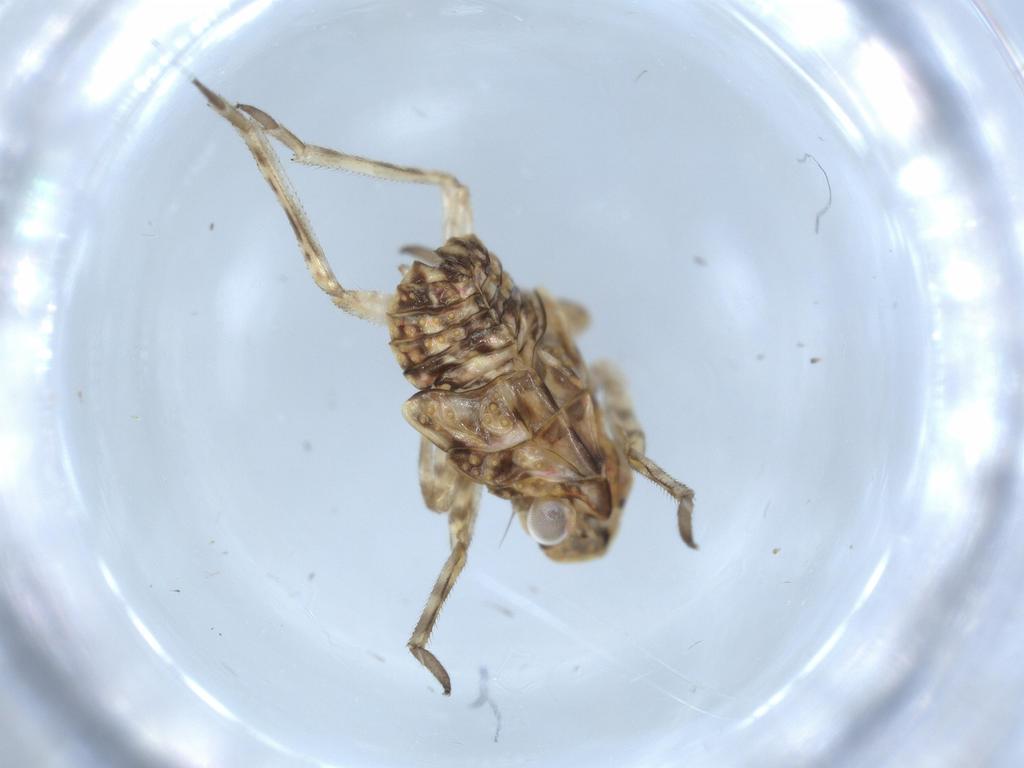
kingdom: Animalia
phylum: Arthropoda
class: Insecta
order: Hemiptera
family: Fulgoridae
